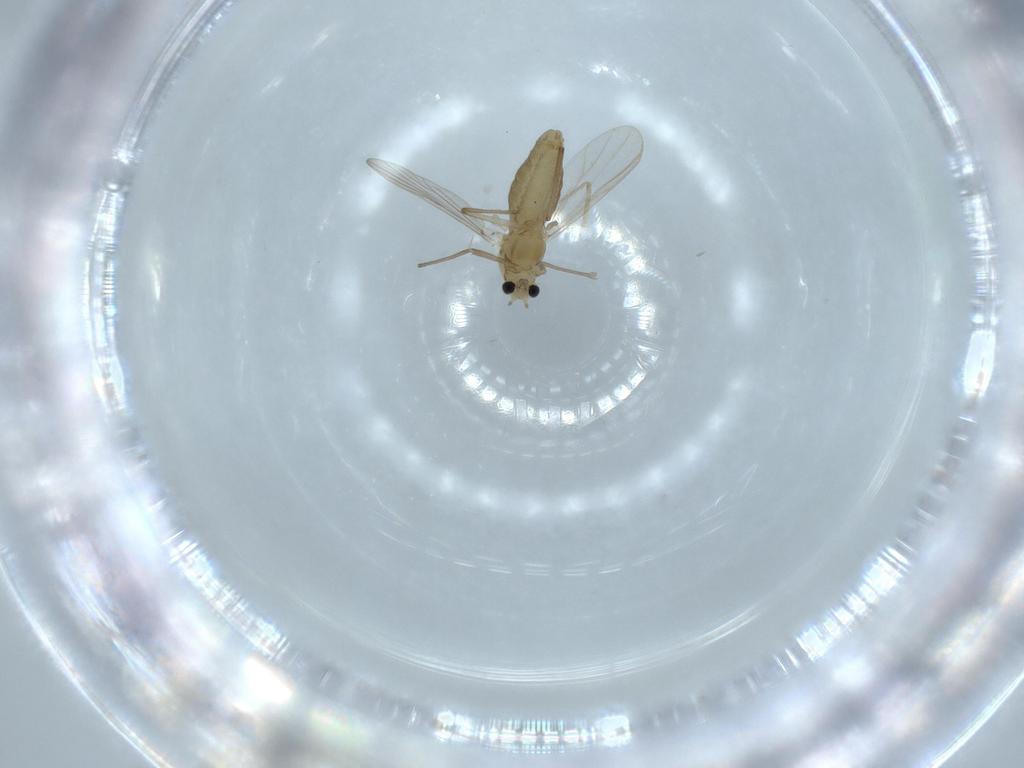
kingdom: Animalia
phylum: Arthropoda
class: Insecta
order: Diptera
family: Chironomidae
